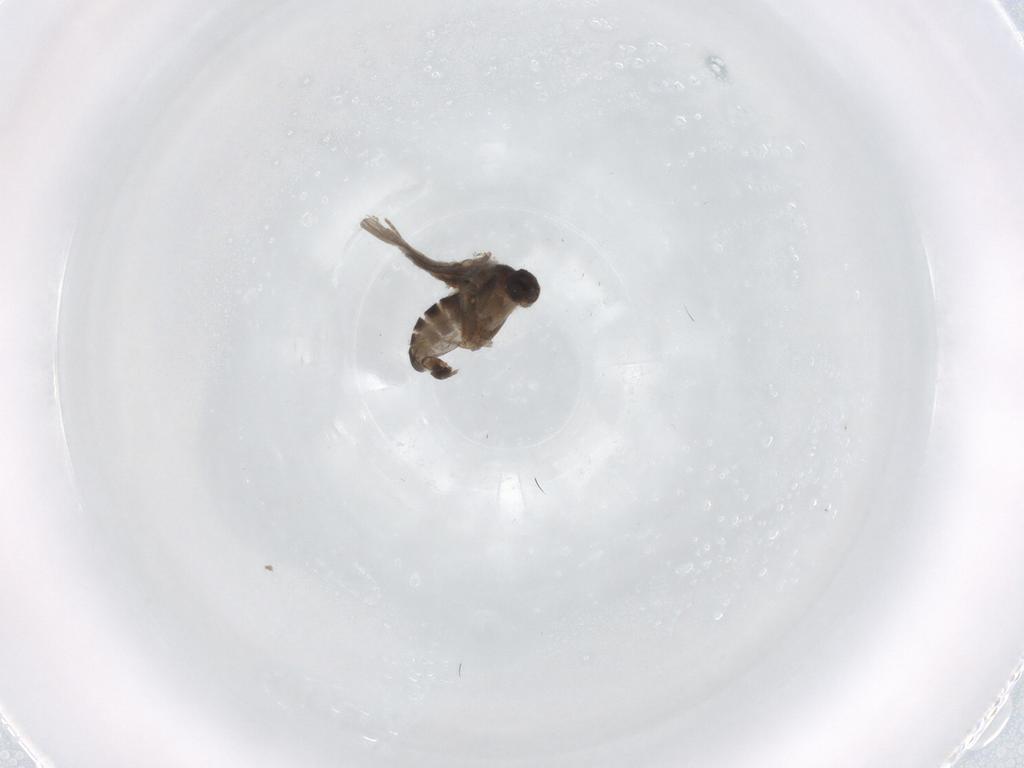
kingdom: Animalia
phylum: Arthropoda
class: Insecta
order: Diptera
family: Ceratopogonidae
